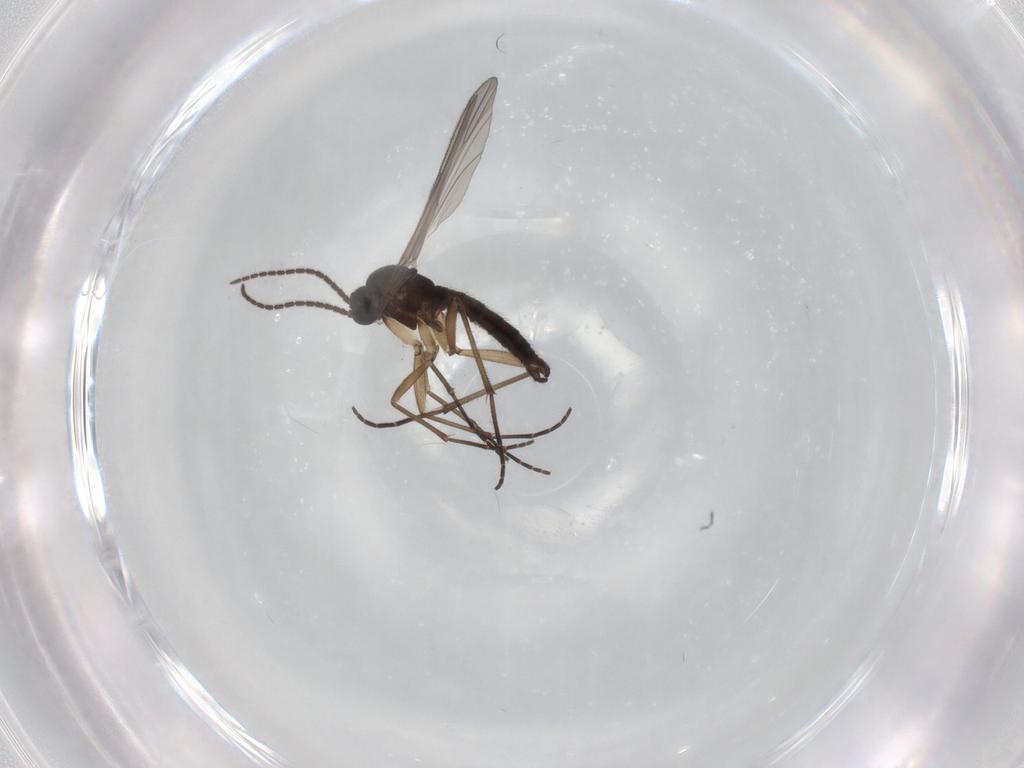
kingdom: Animalia
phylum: Arthropoda
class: Insecta
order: Diptera
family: Sciaridae
